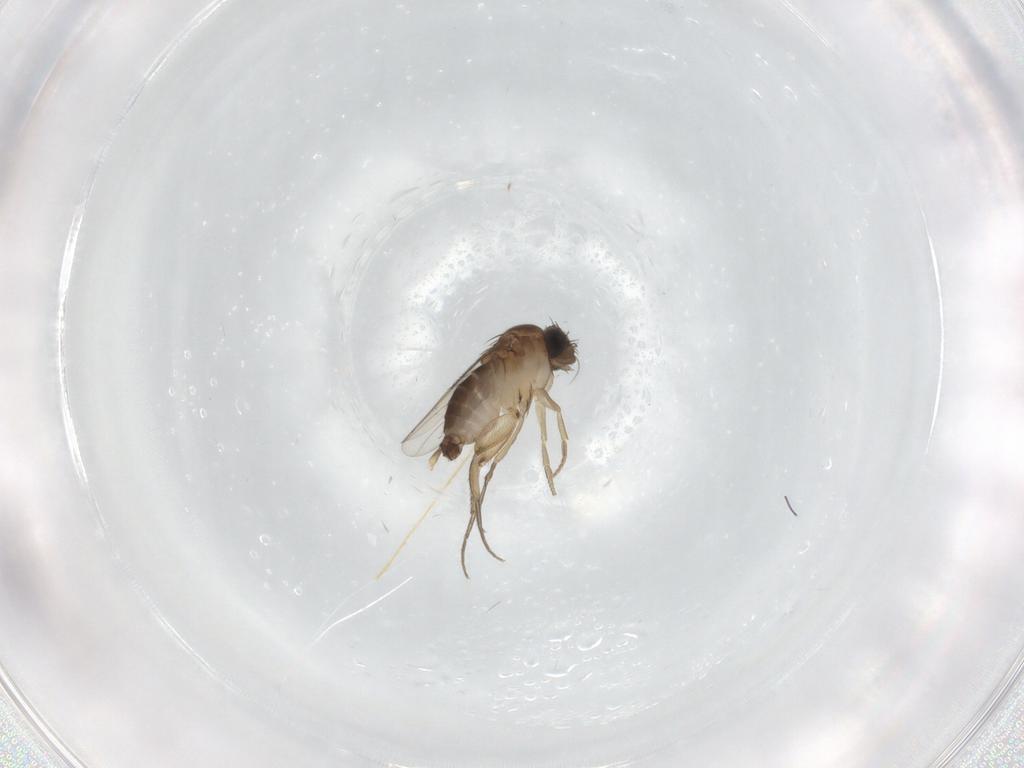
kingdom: Animalia
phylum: Arthropoda
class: Insecta
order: Diptera
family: Phoridae
